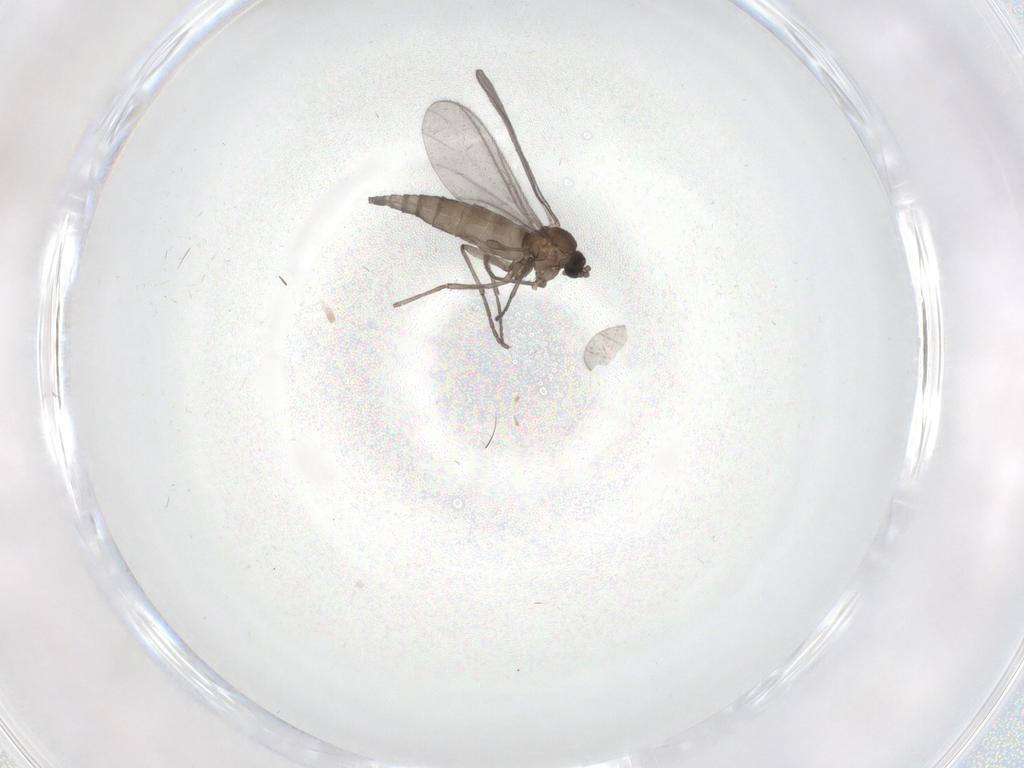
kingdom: Animalia
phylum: Arthropoda
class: Insecta
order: Diptera
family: Sciaridae
